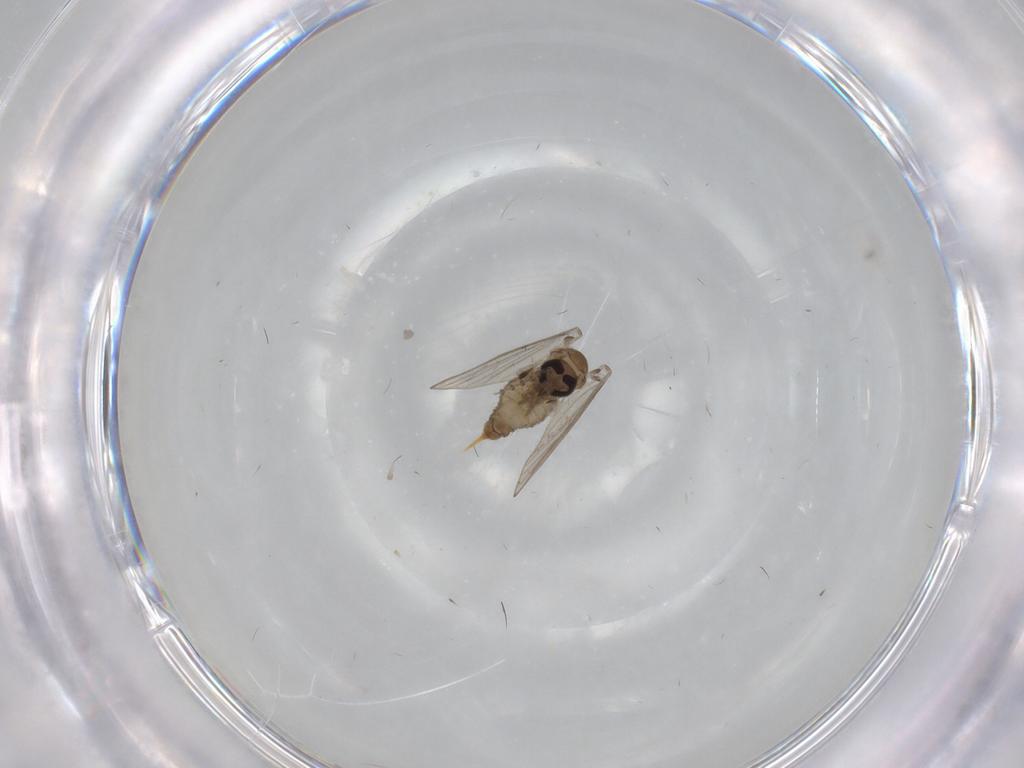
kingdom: Animalia
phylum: Arthropoda
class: Insecta
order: Diptera
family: Psychodidae
